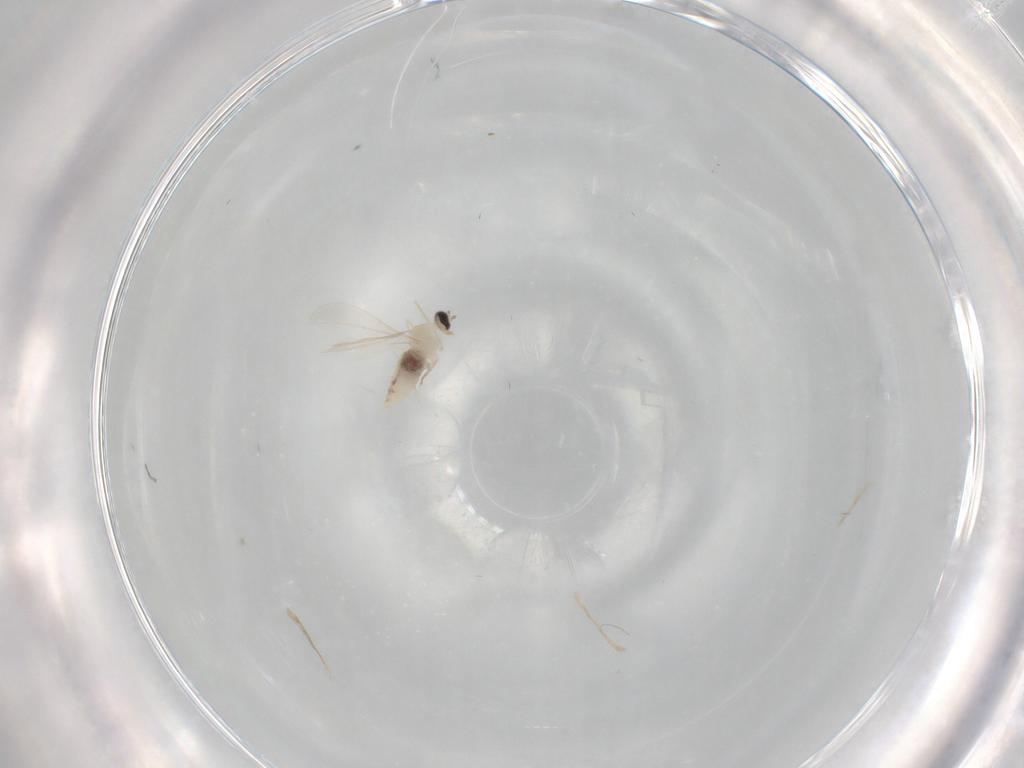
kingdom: Animalia
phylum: Arthropoda
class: Insecta
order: Diptera
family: Cecidomyiidae
